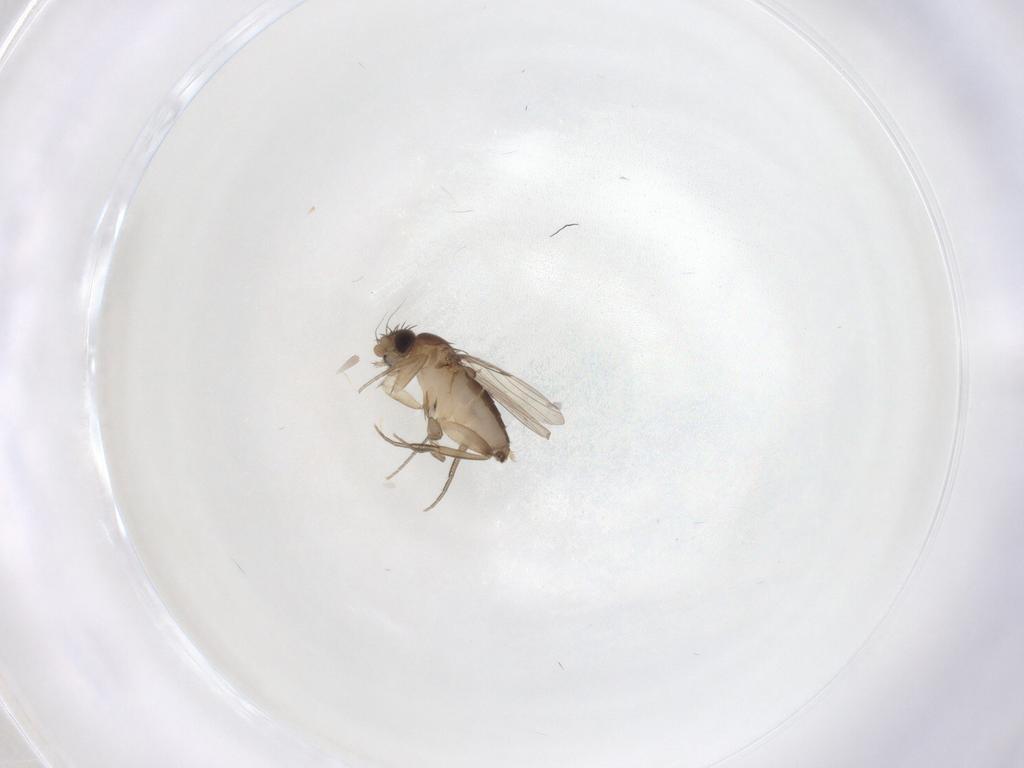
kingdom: Animalia
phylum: Arthropoda
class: Insecta
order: Diptera
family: Phoridae
